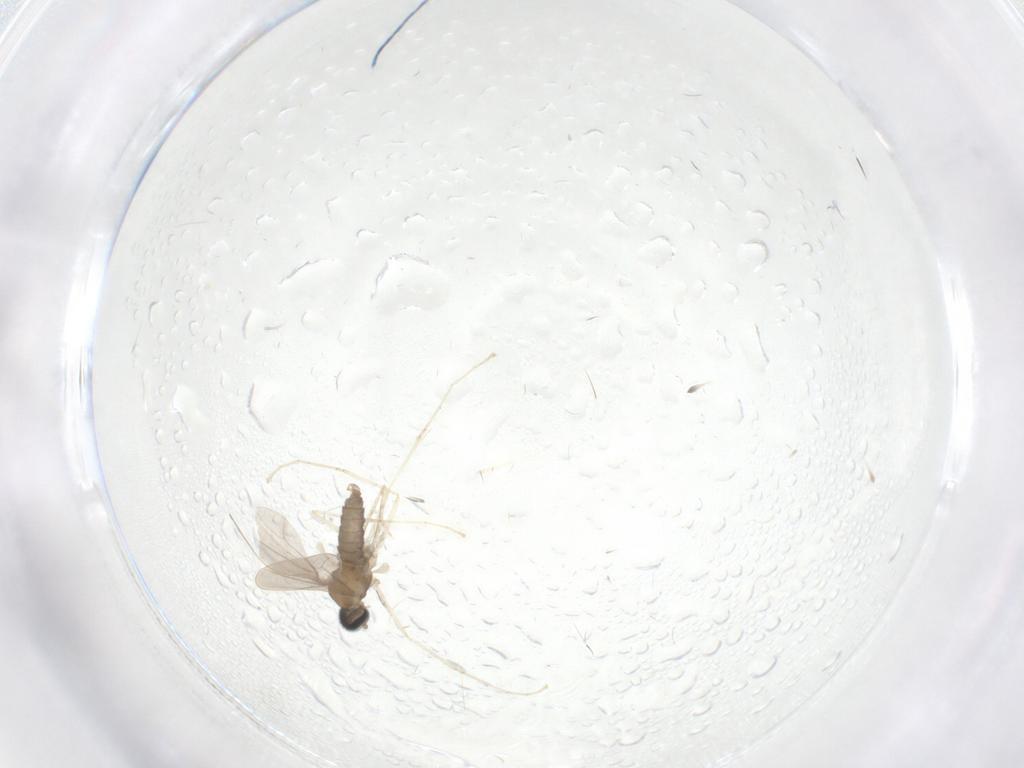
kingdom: Animalia
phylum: Arthropoda
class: Insecta
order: Diptera
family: Cecidomyiidae
